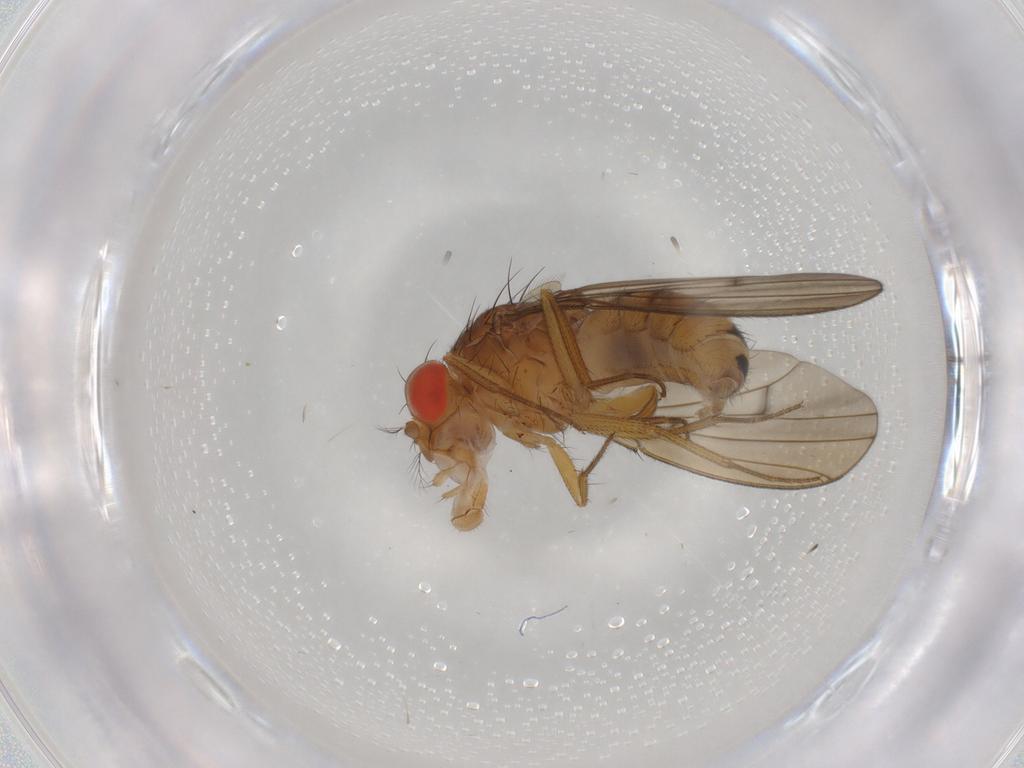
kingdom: Animalia
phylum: Arthropoda
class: Insecta
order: Diptera
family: Drosophilidae
